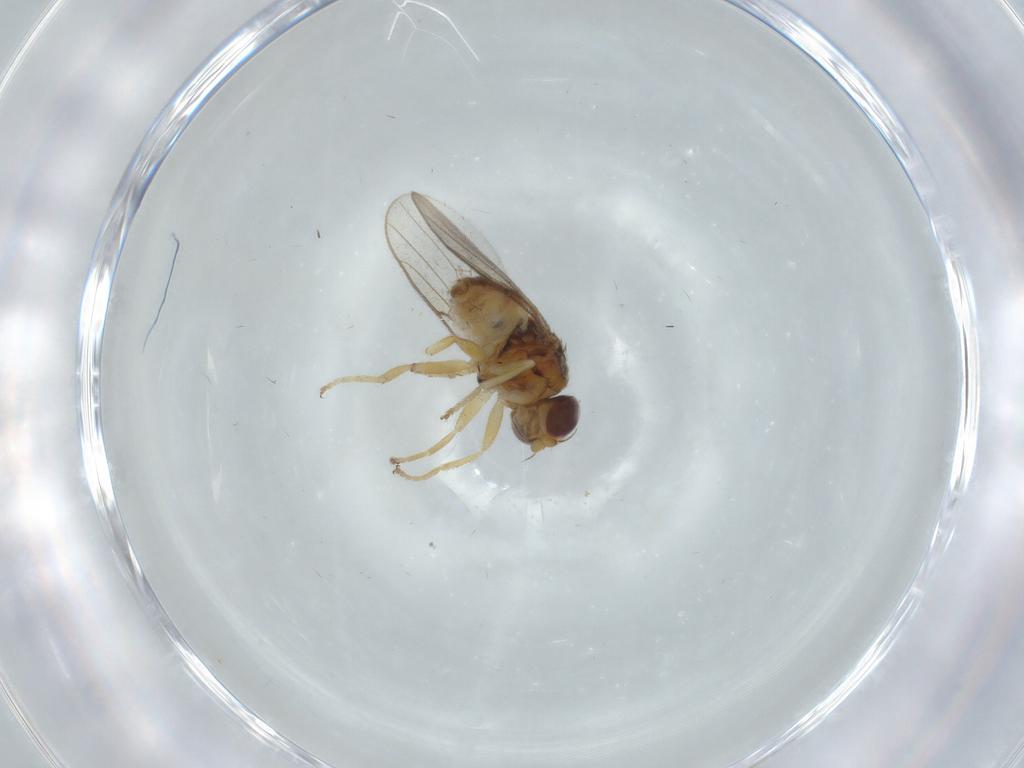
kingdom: Animalia
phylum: Arthropoda
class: Insecta
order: Diptera
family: Chloropidae
